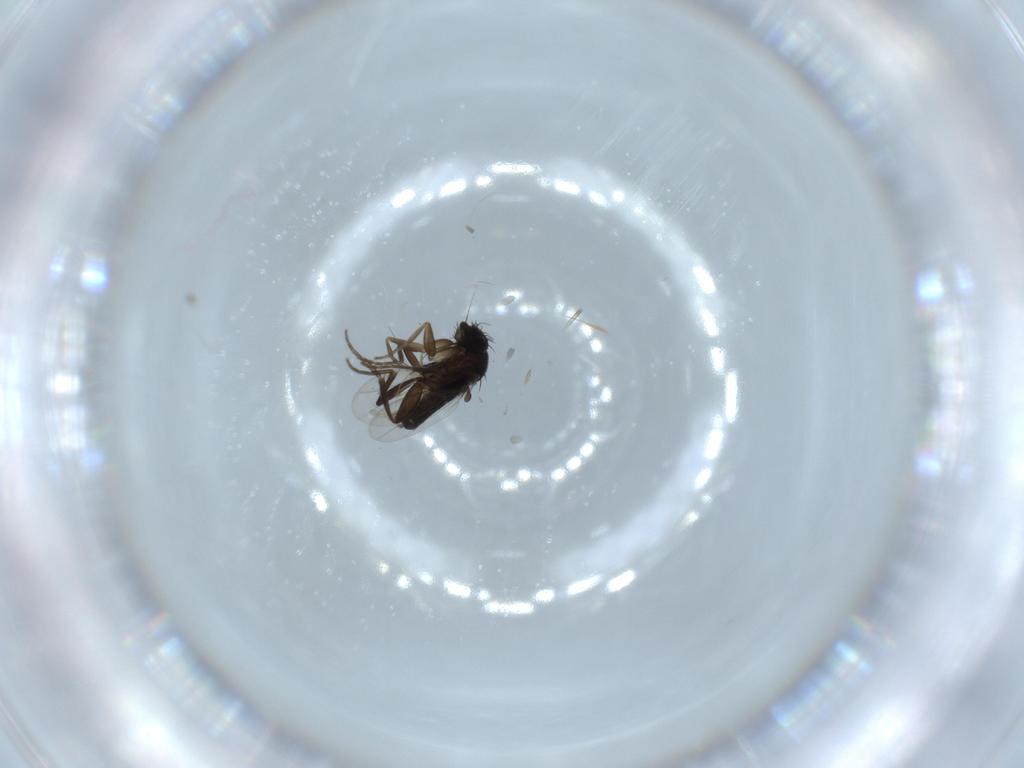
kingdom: Animalia
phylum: Arthropoda
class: Insecta
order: Diptera
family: Phoridae
